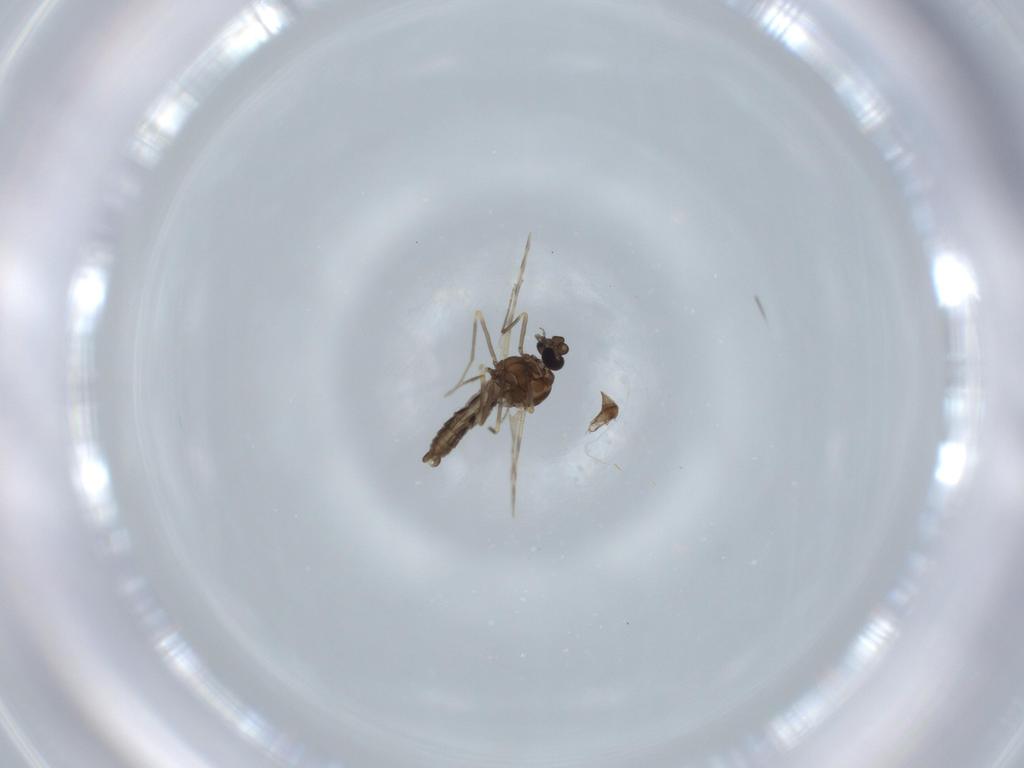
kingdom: Animalia
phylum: Arthropoda
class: Insecta
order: Diptera
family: Ceratopogonidae
